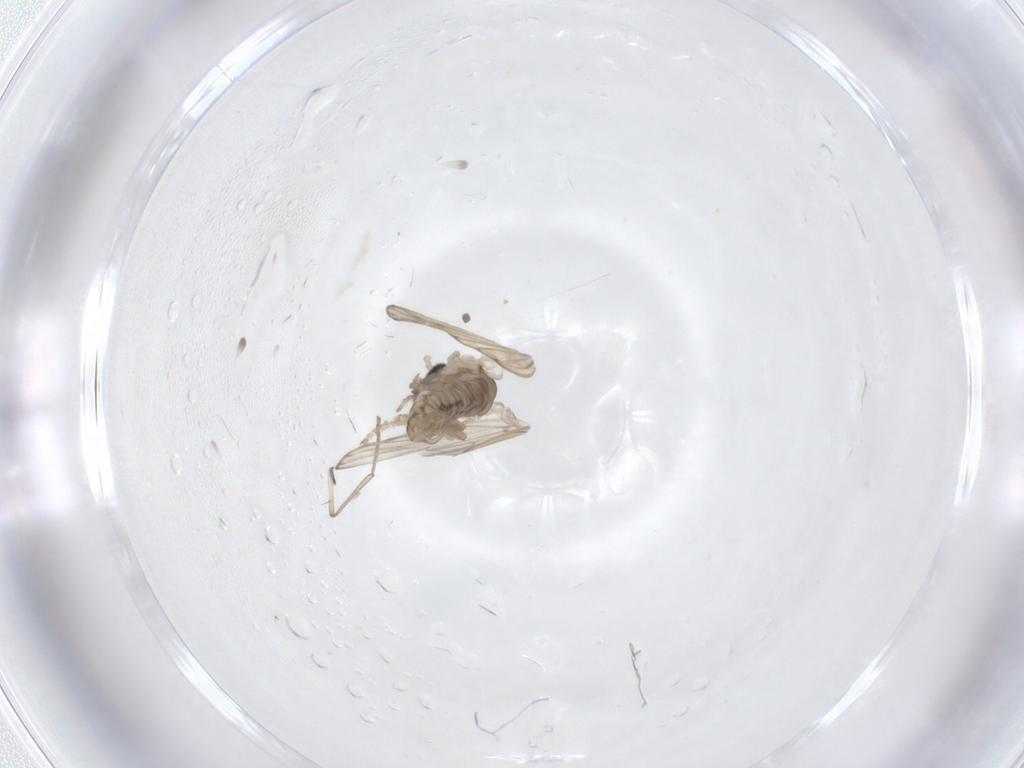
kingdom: Animalia
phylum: Arthropoda
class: Insecta
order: Diptera
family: Psychodidae
